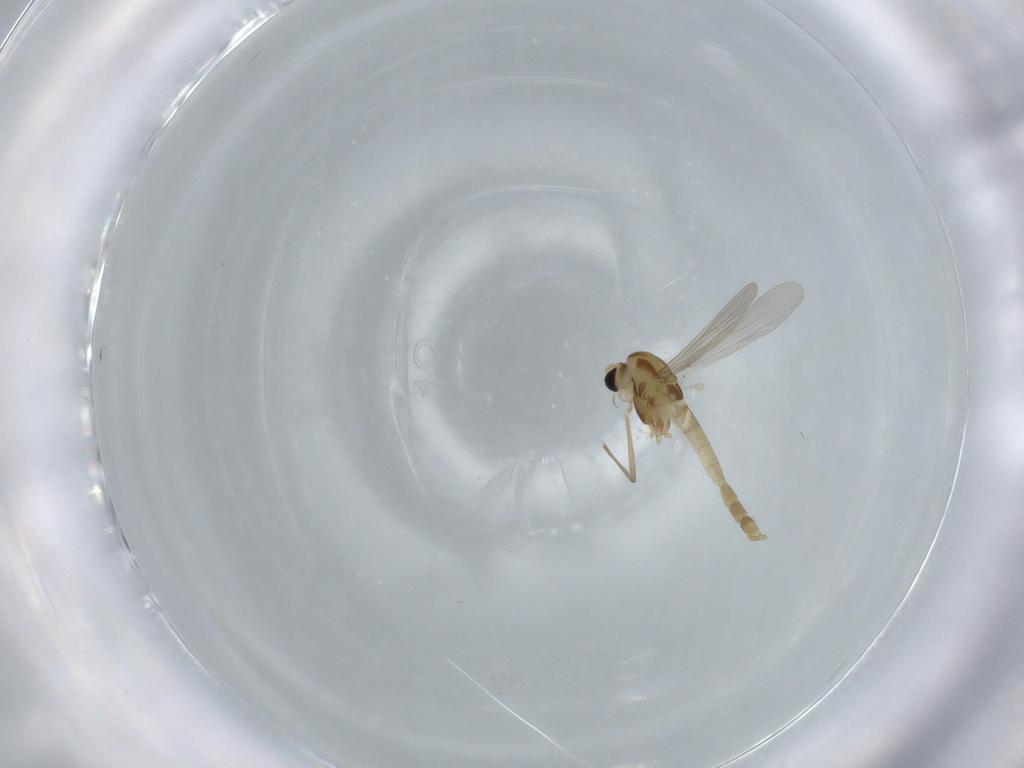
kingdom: Animalia
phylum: Arthropoda
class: Insecta
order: Diptera
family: Chironomidae
